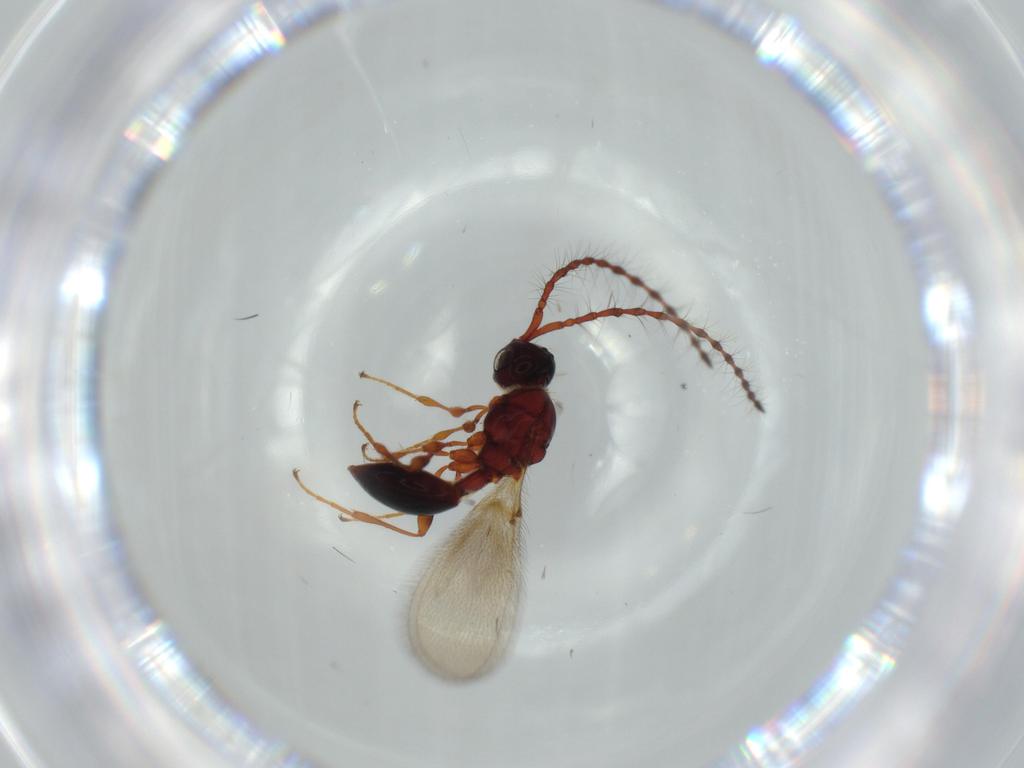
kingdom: Animalia
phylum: Arthropoda
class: Insecta
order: Hymenoptera
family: Diapriidae
